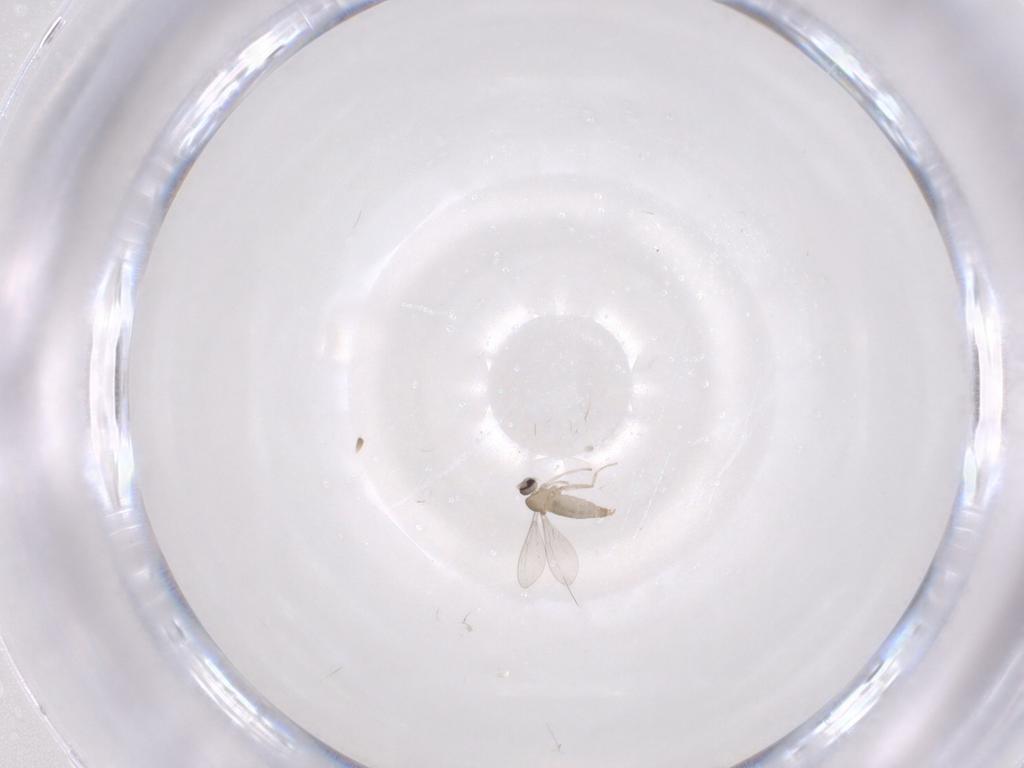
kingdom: Animalia
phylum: Arthropoda
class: Insecta
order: Diptera
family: Cecidomyiidae
